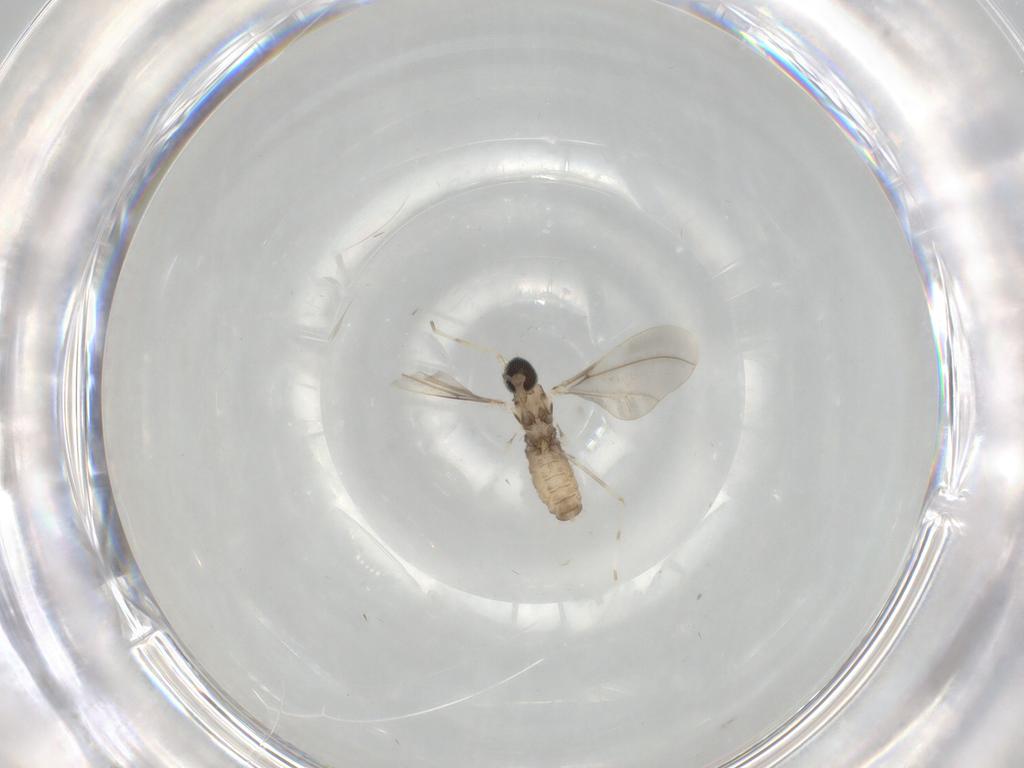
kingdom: Animalia
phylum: Arthropoda
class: Insecta
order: Diptera
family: Cecidomyiidae
